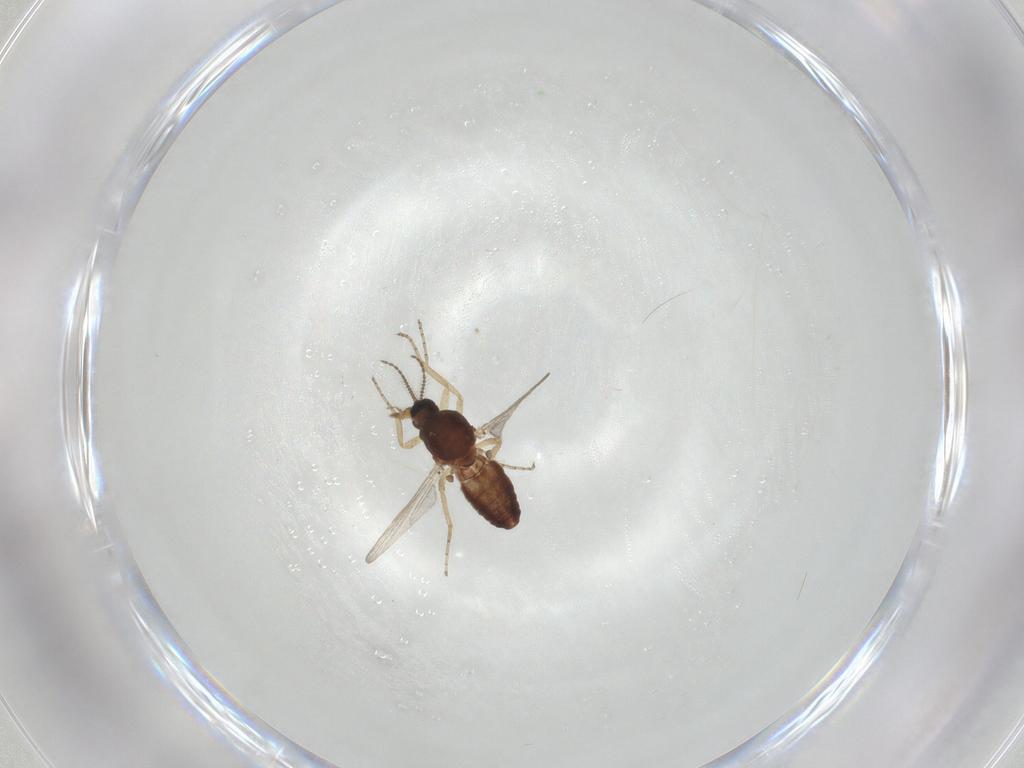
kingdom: Animalia
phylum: Arthropoda
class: Insecta
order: Diptera
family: Ceratopogonidae
